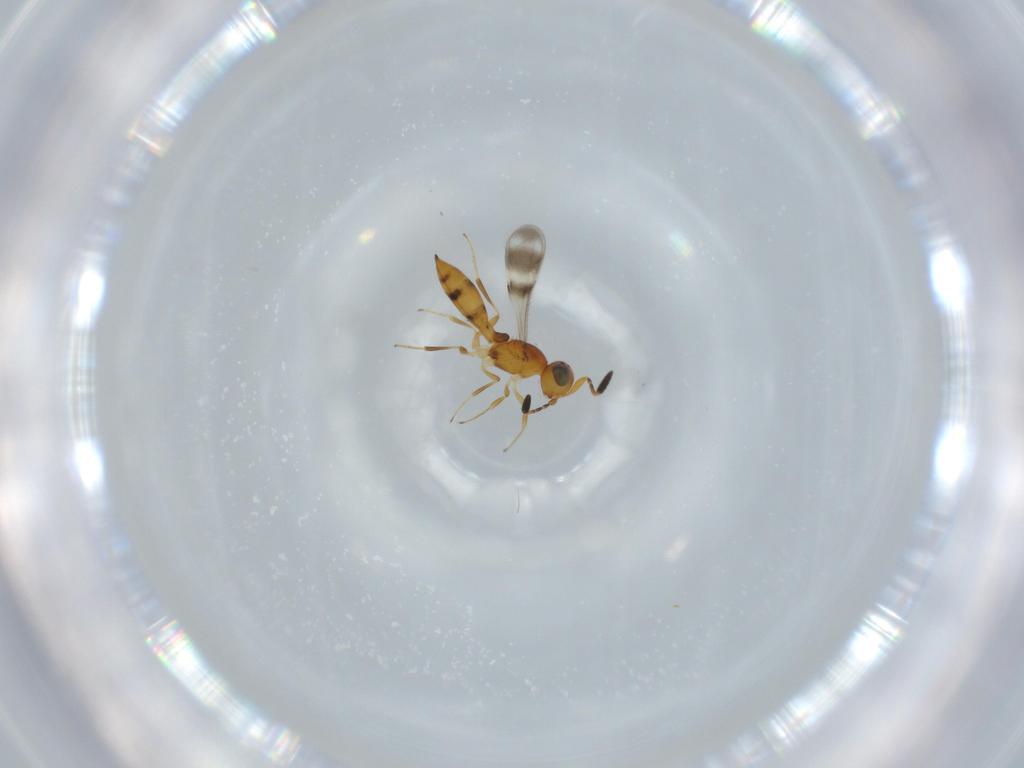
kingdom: Animalia
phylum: Arthropoda
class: Insecta
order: Hymenoptera
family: Scelionidae
